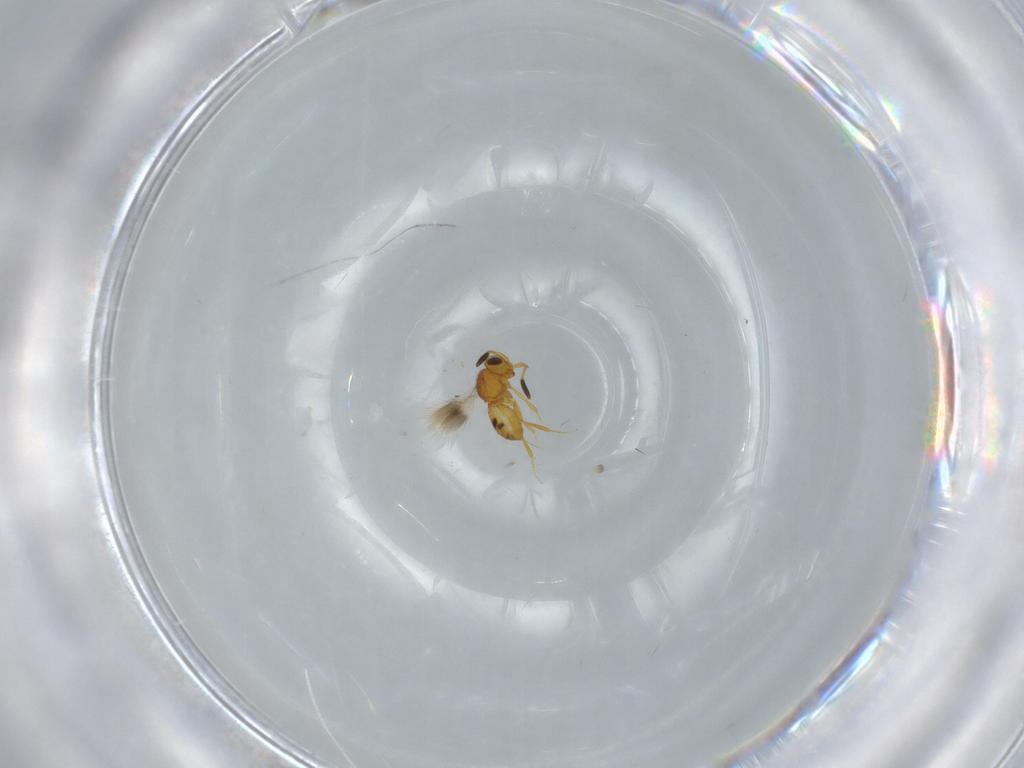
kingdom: Animalia
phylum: Arthropoda
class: Insecta
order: Hymenoptera
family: Scelionidae
